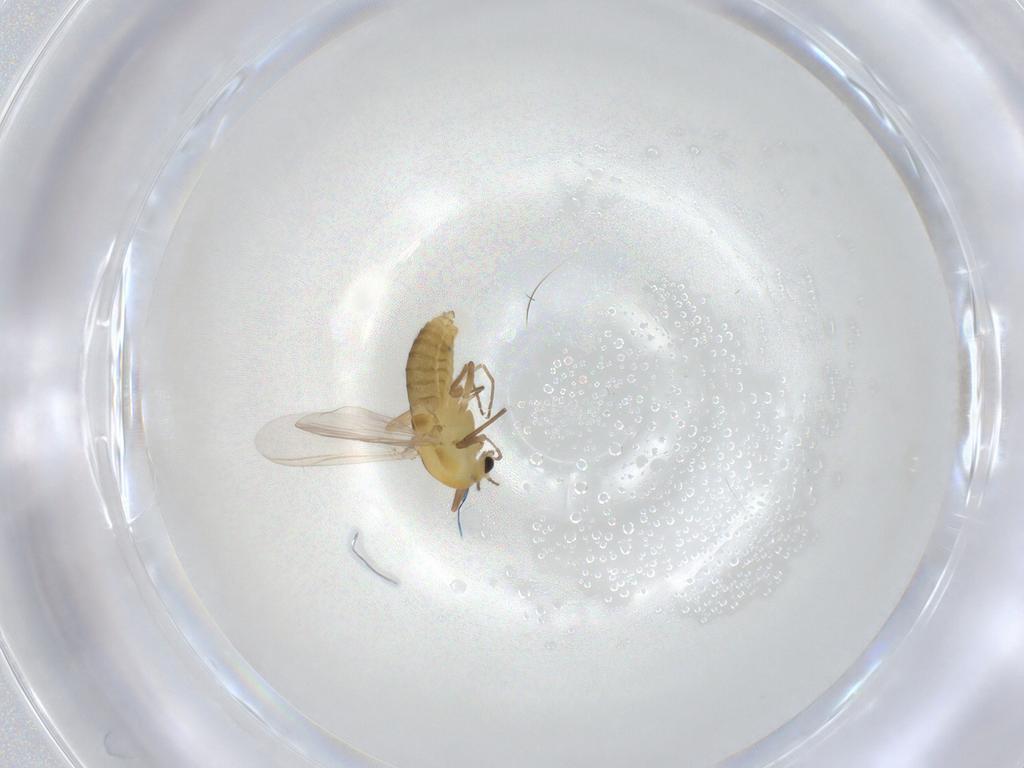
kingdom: Animalia
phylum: Arthropoda
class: Insecta
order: Diptera
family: Chironomidae
